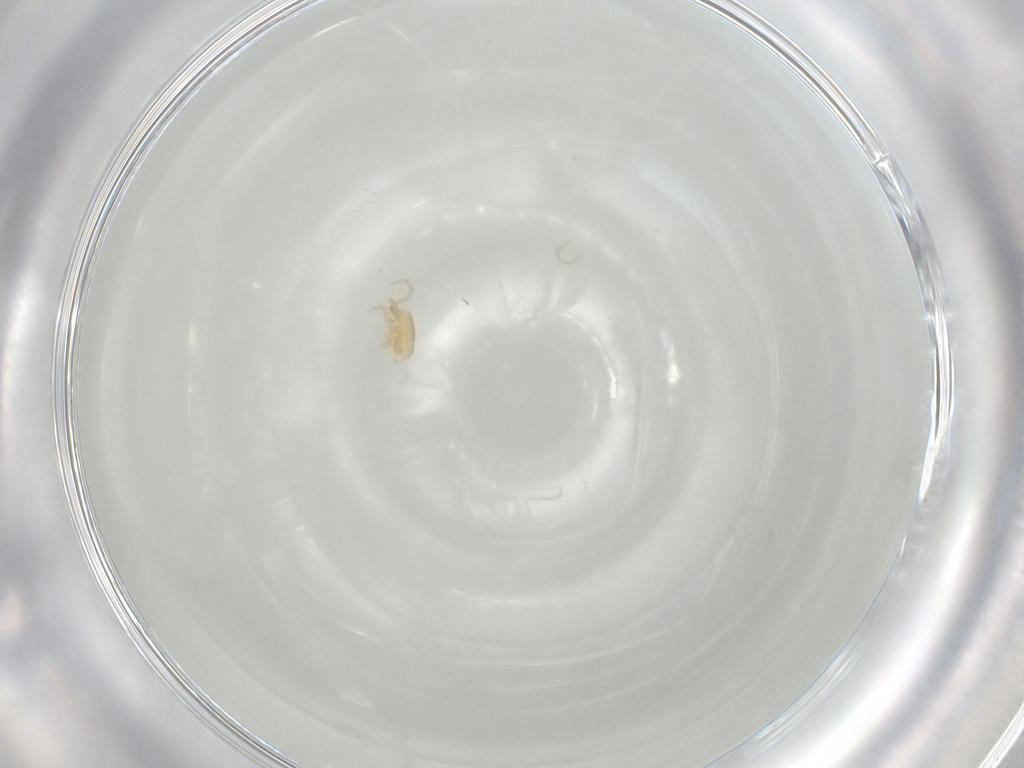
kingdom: Animalia
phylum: Arthropoda
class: Arachnida
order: Mesostigmata
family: Parasitidae
